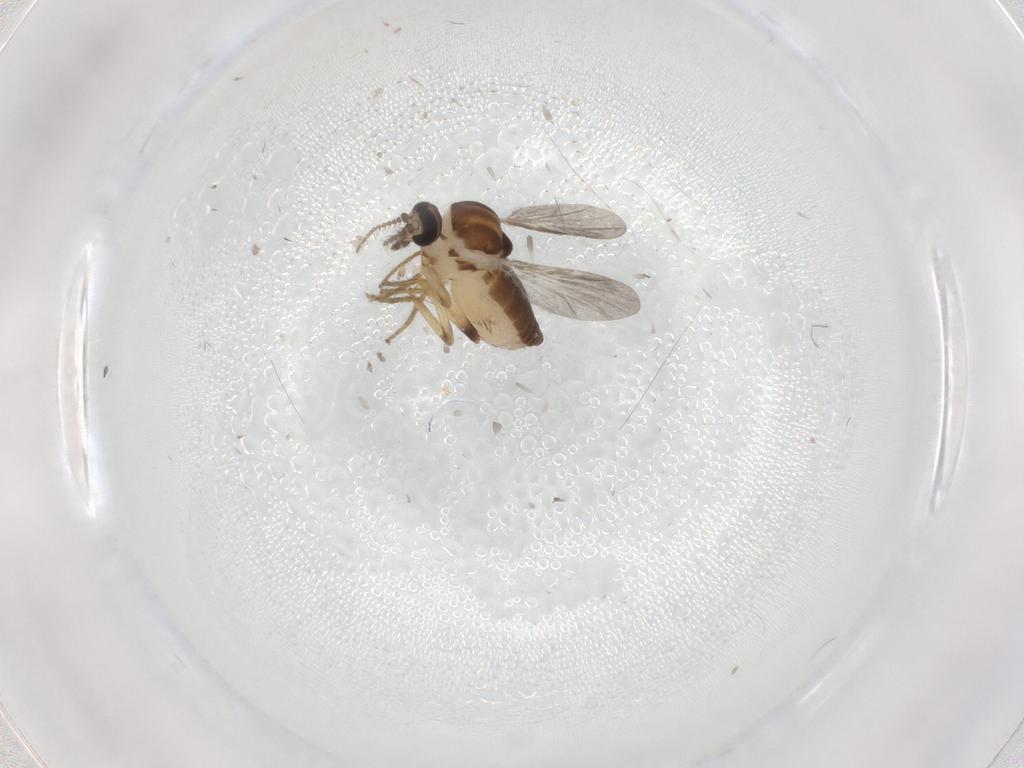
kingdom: Animalia
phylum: Arthropoda
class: Insecta
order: Diptera
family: Ceratopogonidae
